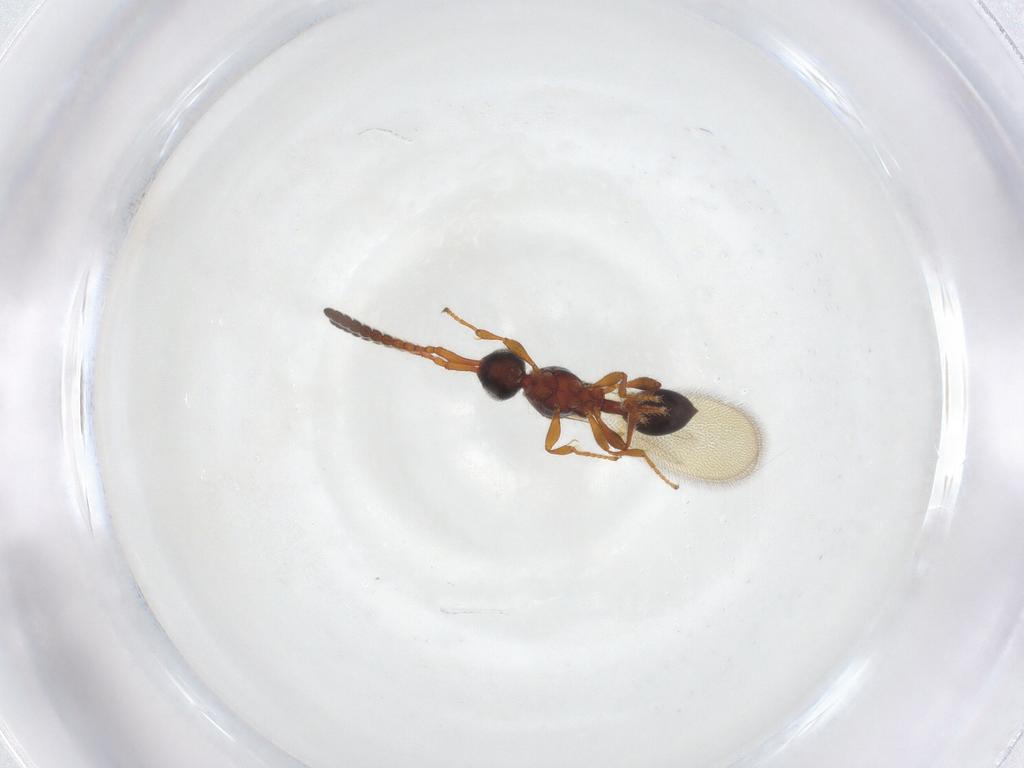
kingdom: Animalia
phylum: Arthropoda
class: Insecta
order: Hymenoptera
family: Diapriidae
